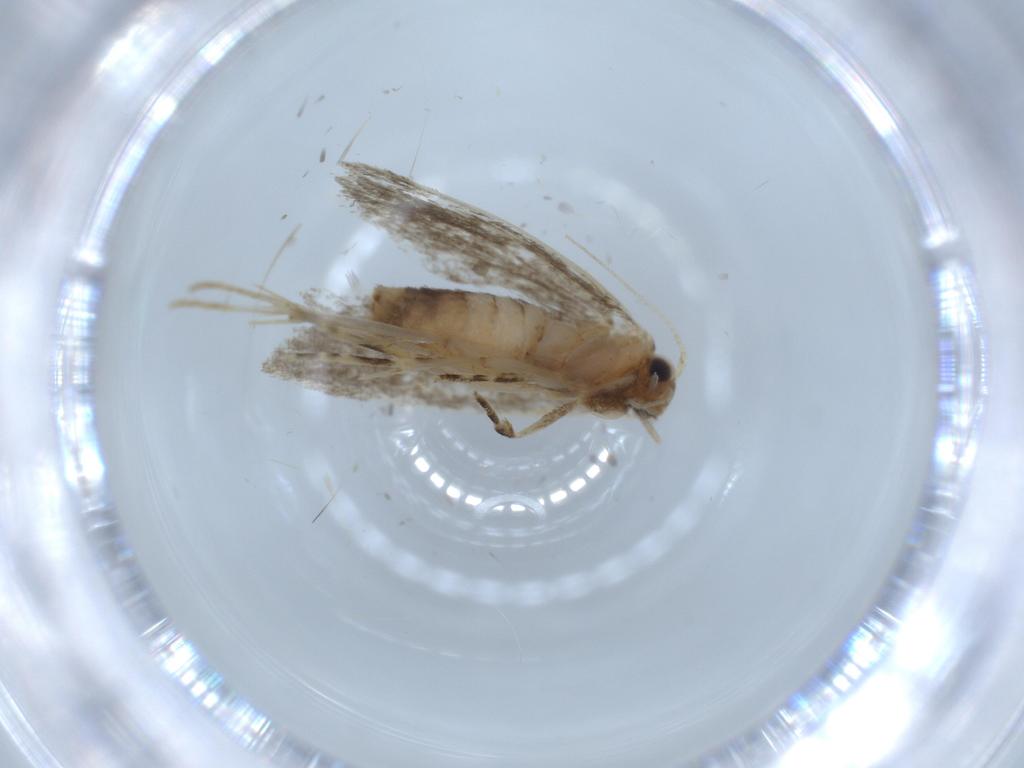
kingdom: Animalia
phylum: Arthropoda
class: Insecta
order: Lepidoptera
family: Tineidae
